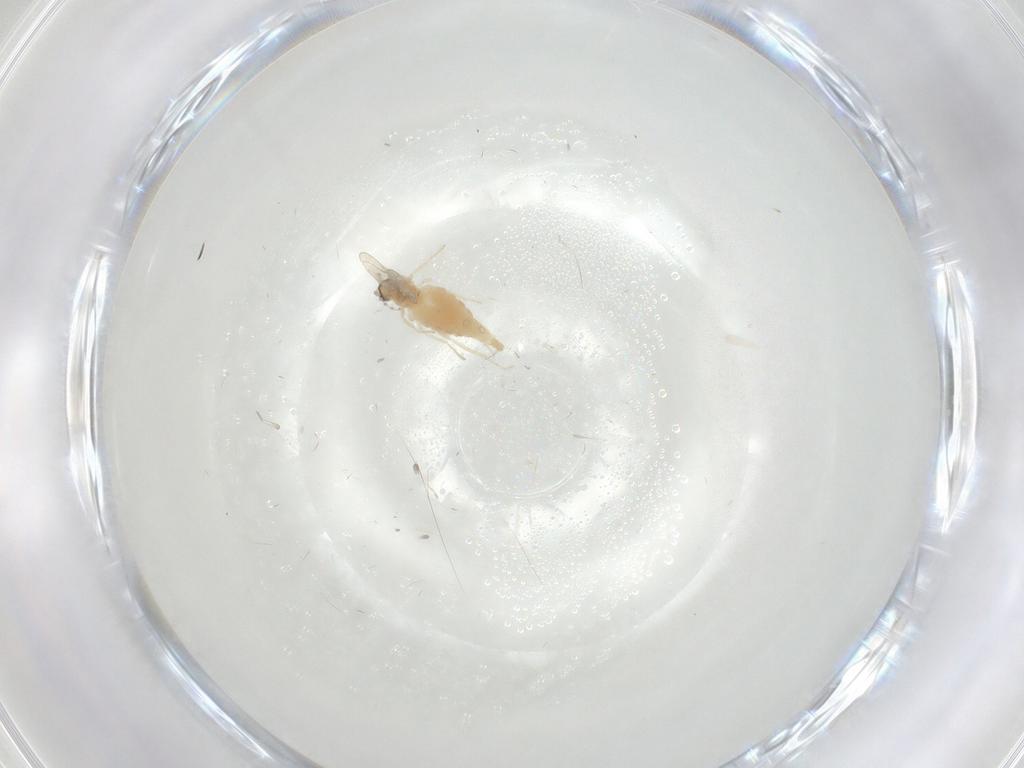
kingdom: Animalia
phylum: Arthropoda
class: Insecta
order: Diptera
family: Cecidomyiidae
